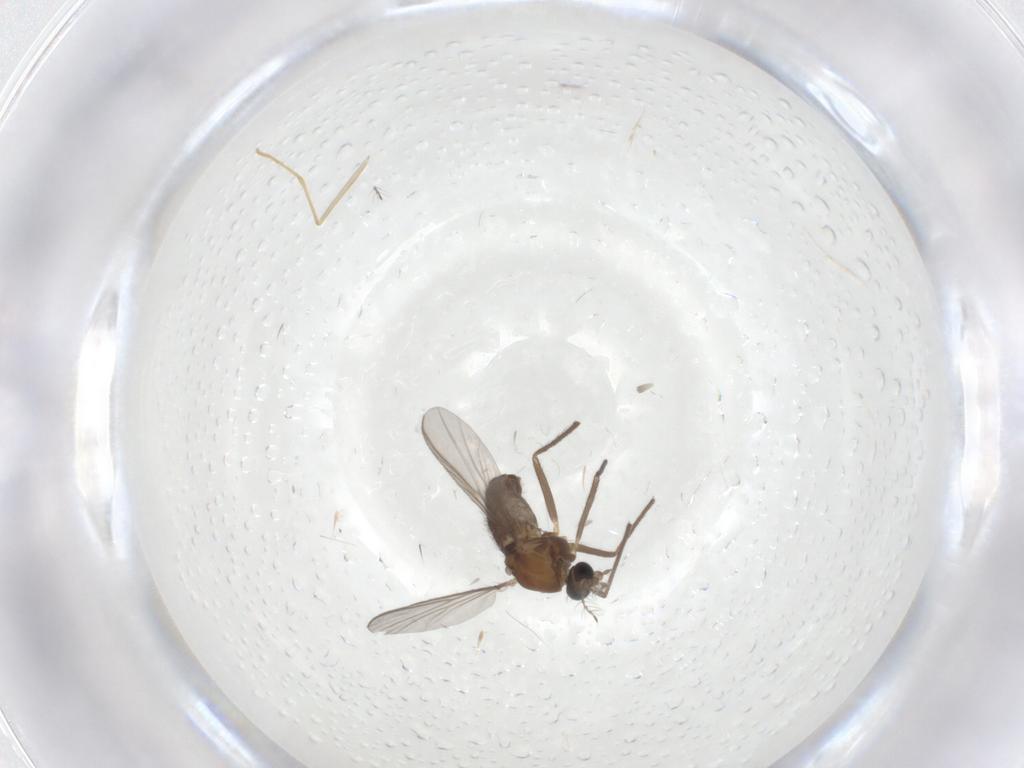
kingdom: Animalia
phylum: Arthropoda
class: Insecta
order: Diptera
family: Chironomidae
